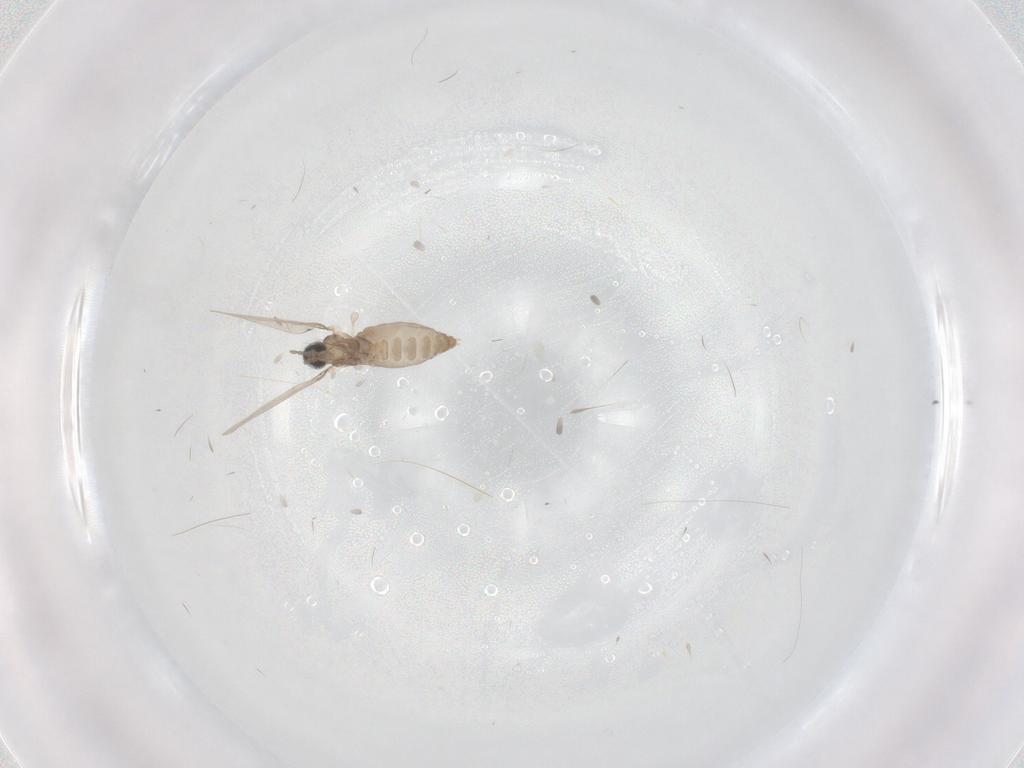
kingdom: Animalia
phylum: Arthropoda
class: Insecta
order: Diptera
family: Cecidomyiidae
